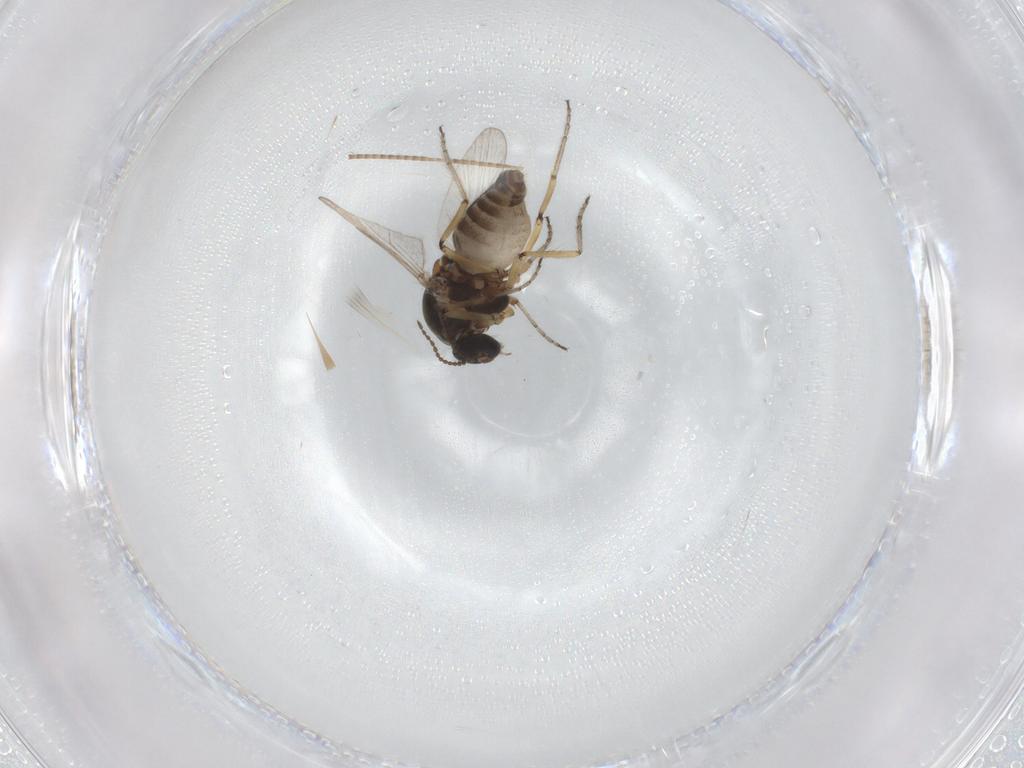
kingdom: Animalia
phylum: Arthropoda
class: Insecta
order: Diptera
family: Ceratopogonidae
